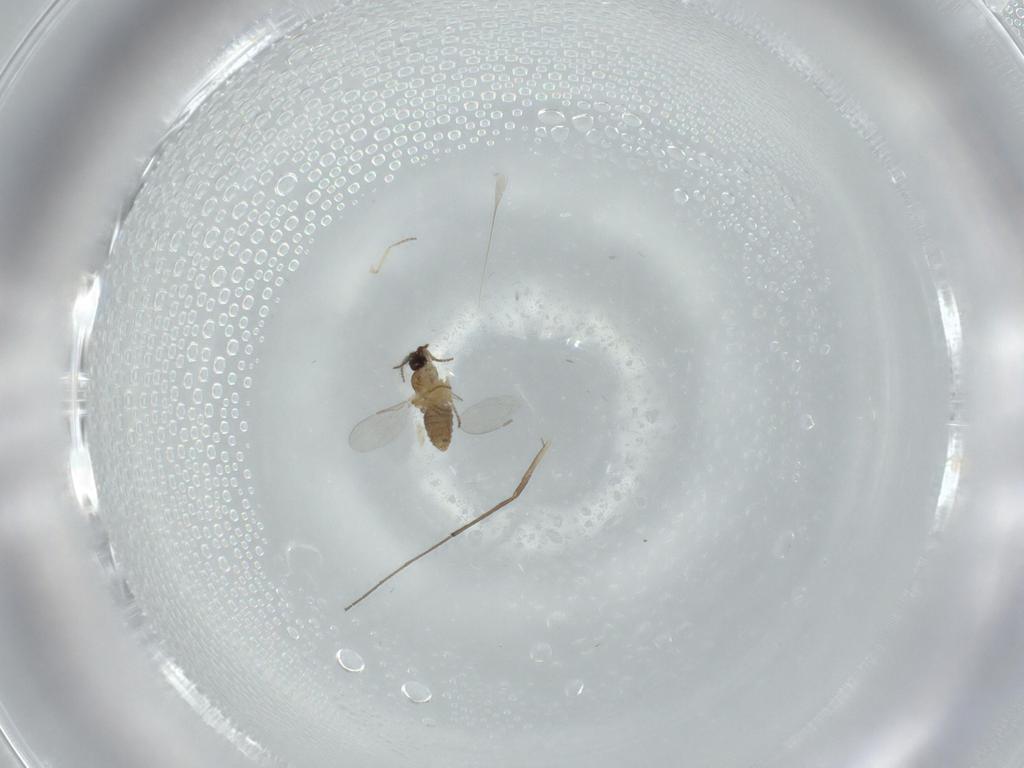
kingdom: Animalia
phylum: Arthropoda
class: Insecta
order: Diptera
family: Ceratopogonidae
